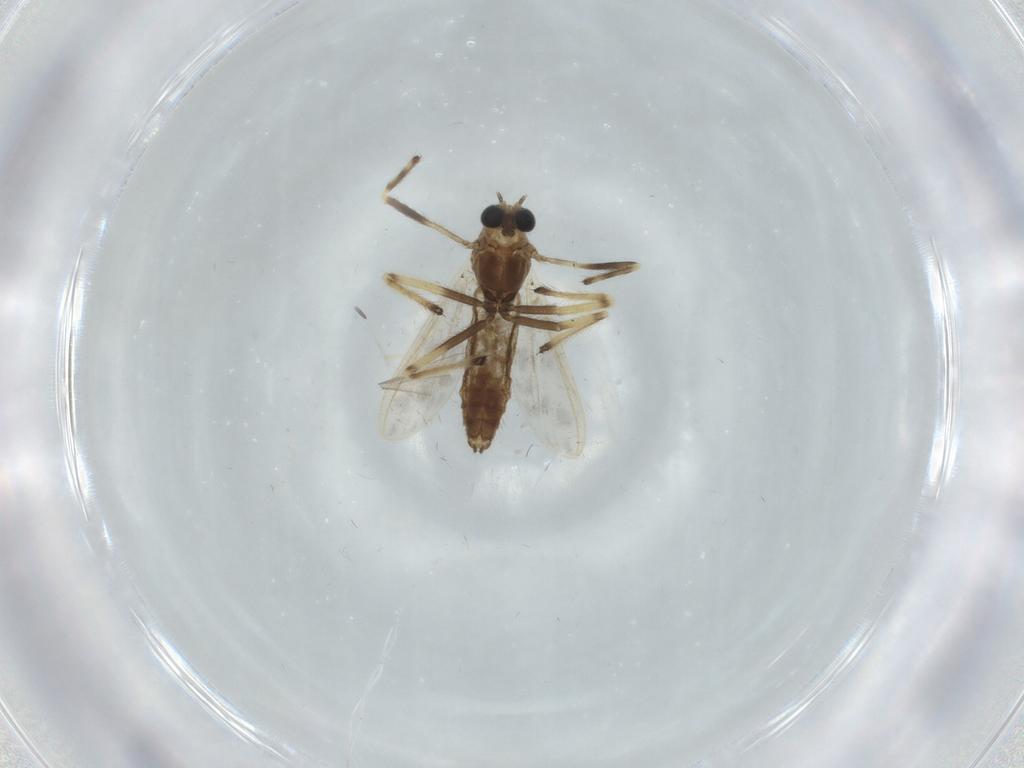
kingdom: Animalia
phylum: Arthropoda
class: Insecta
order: Diptera
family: Chironomidae
